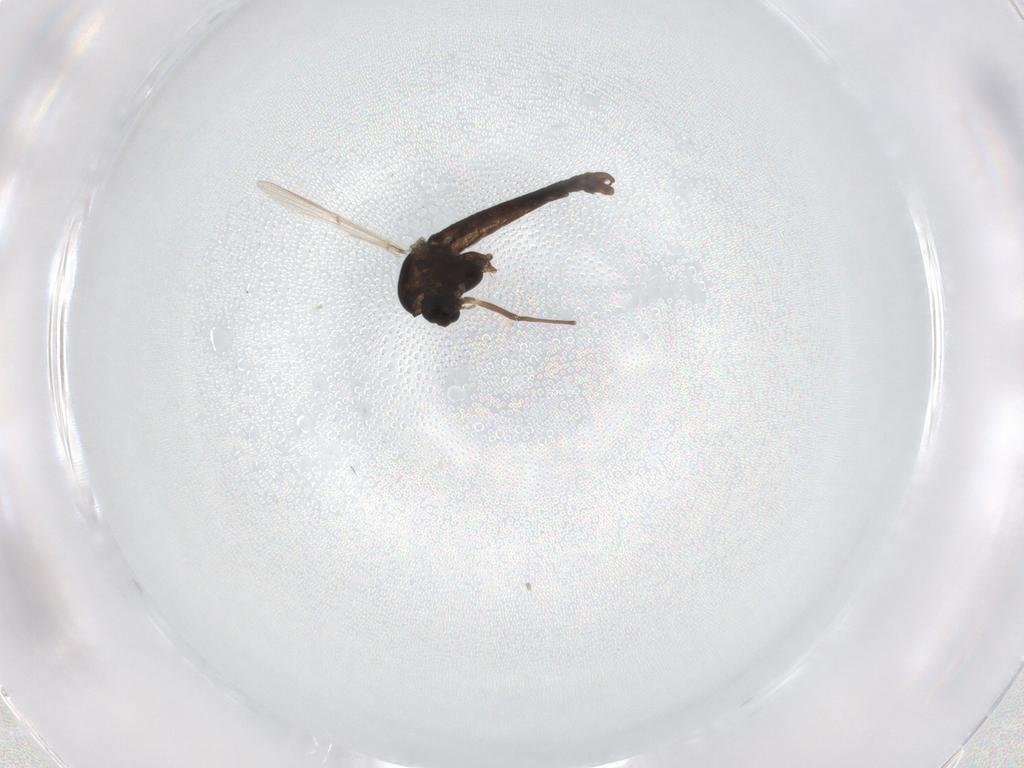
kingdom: Animalia
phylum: Arthropoda
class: Insecta
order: Diptera
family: Chironomidae
